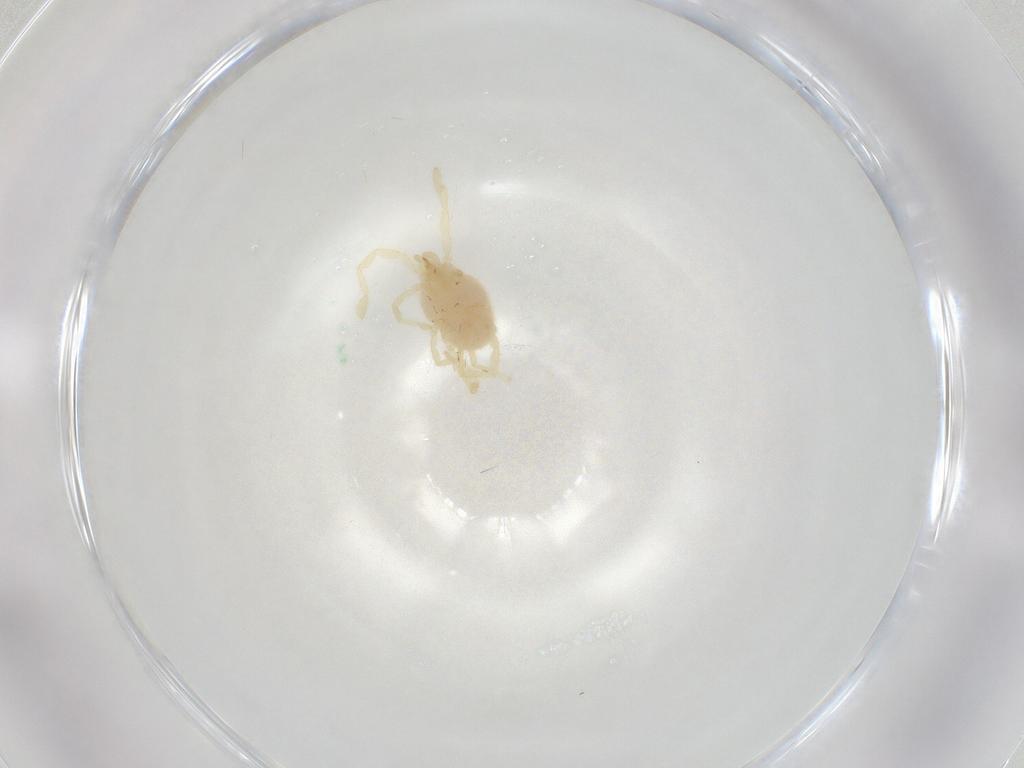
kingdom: Animalia
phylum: Arthropoda
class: Arachnida
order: Trombidiformes
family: Erythraeidae
